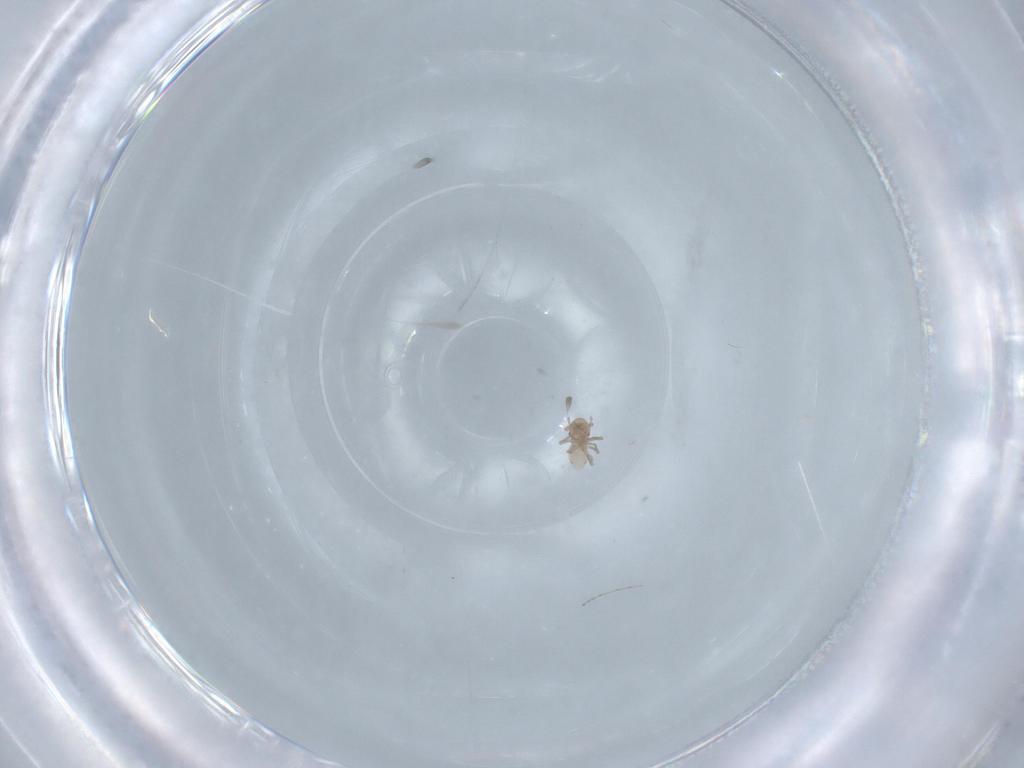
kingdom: Animalia
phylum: Arthropoda
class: Insecta
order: Diptera
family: Cecidomyiidae
